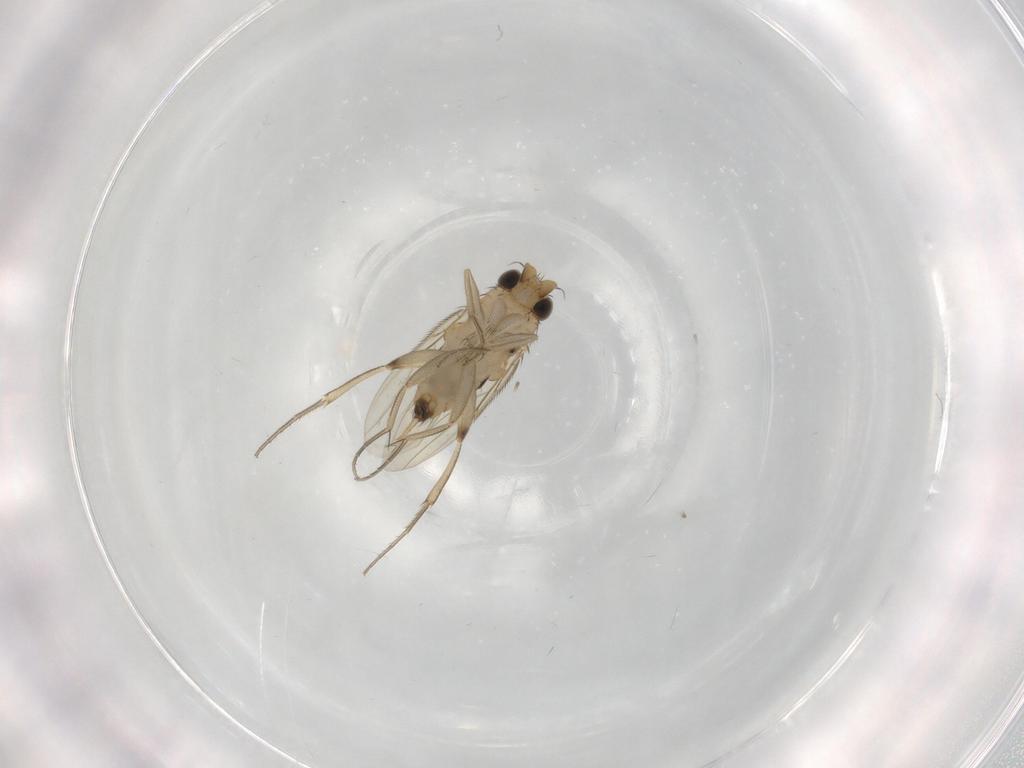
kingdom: Animalia
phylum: Arthropoda
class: Insecta
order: Diptera
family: Phoridae
